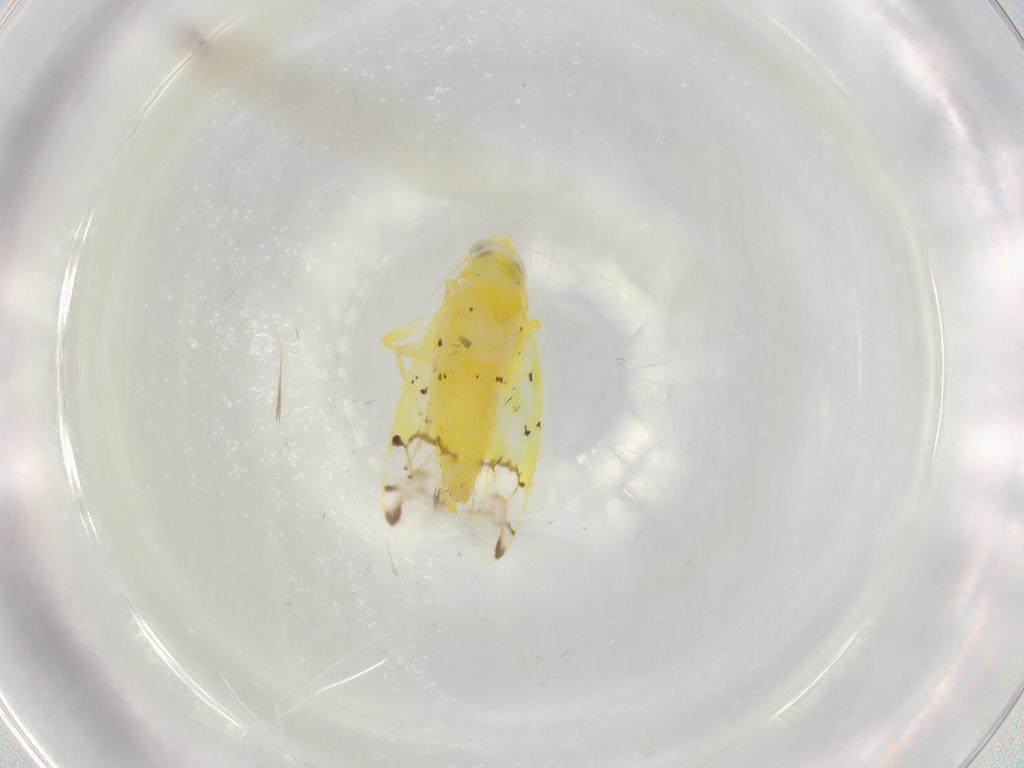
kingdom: Animalia
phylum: Arthropoda
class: Insecta
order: Hemiptera
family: Cicadellidae
